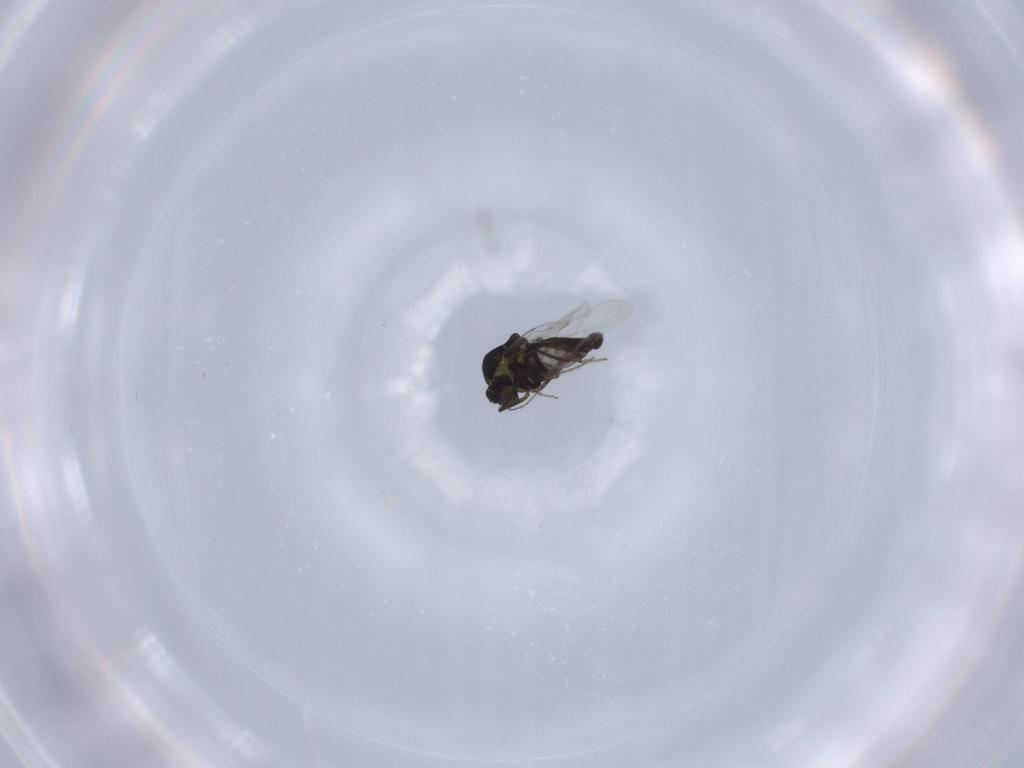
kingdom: Animalia
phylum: Arthropoda
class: Insecta
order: Diptera
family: Ceratopogonidae
